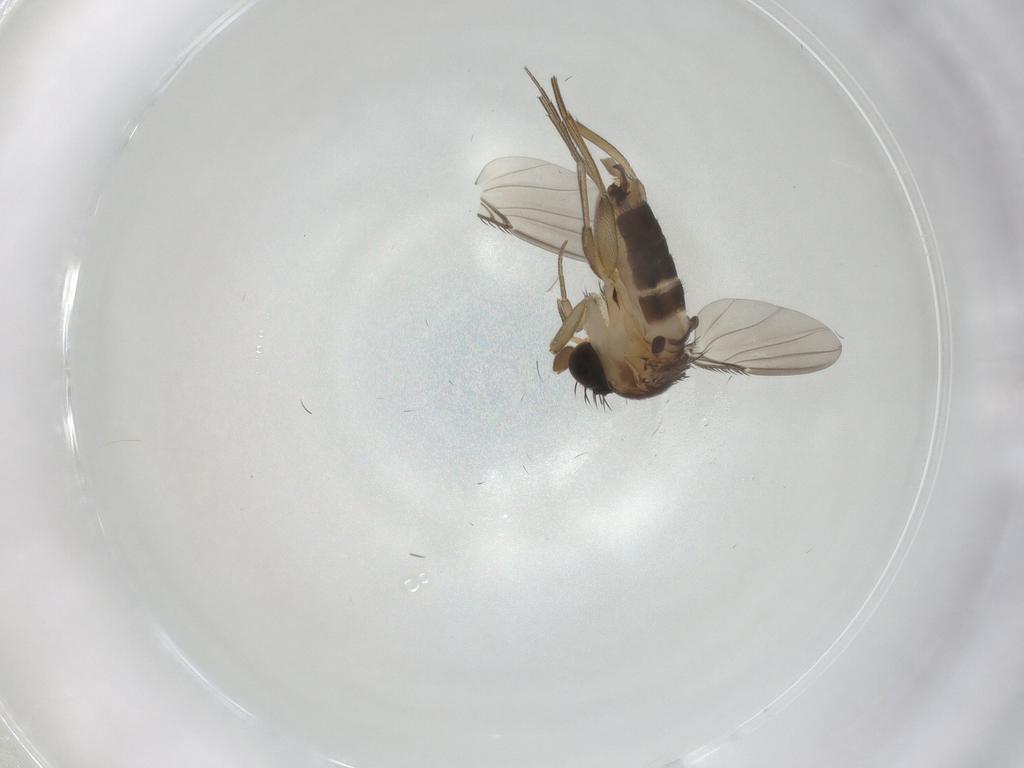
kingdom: Animalia
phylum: Arthropoda
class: Insecta
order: Diptera
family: Phoridae
